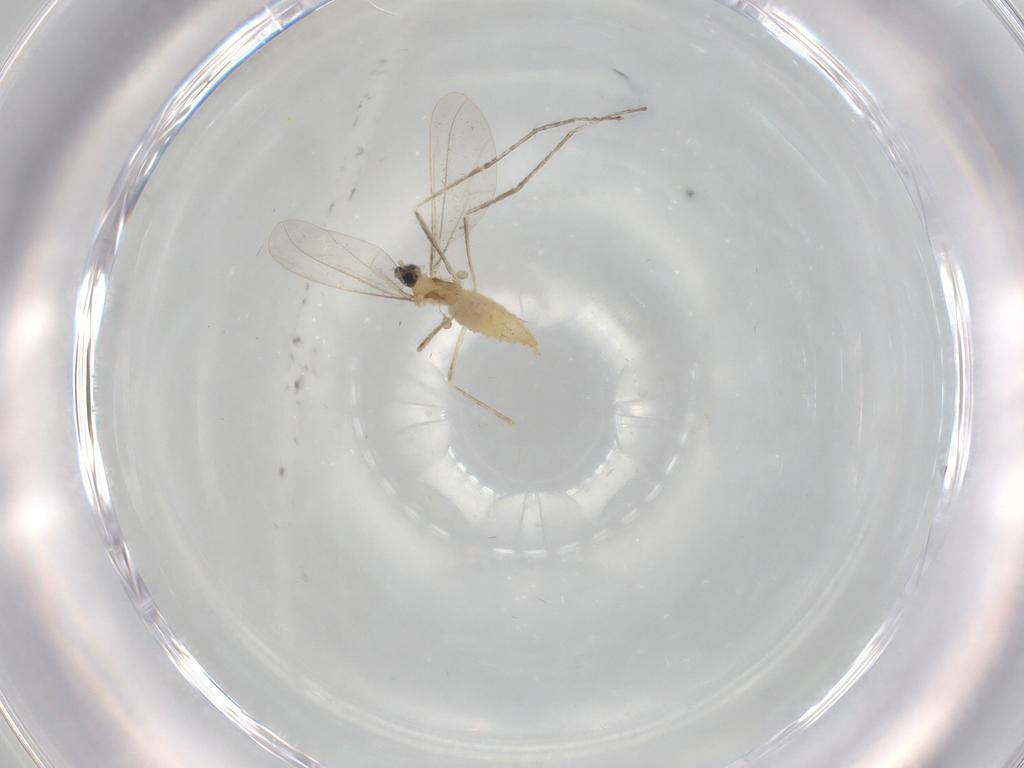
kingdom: Animalia
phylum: Arthropoda
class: Insecta
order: Diptera
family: Cecidomyiidae
